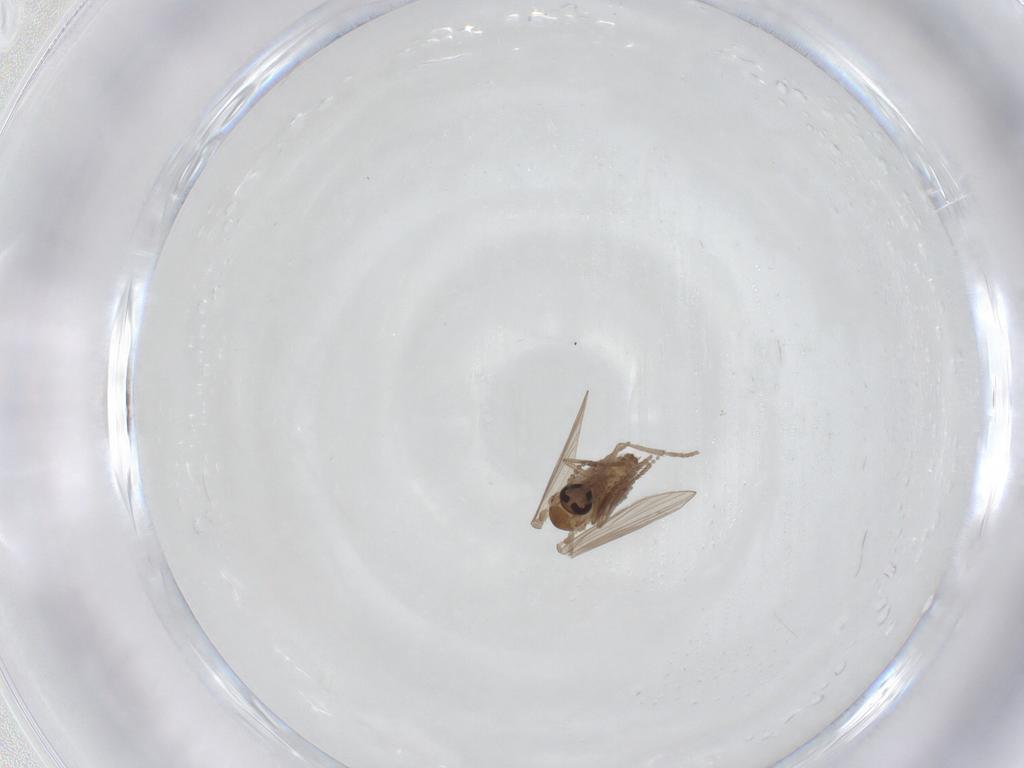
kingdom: Animalia
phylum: Arthropoda
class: Insecta
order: Diptera
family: Psychodidae
